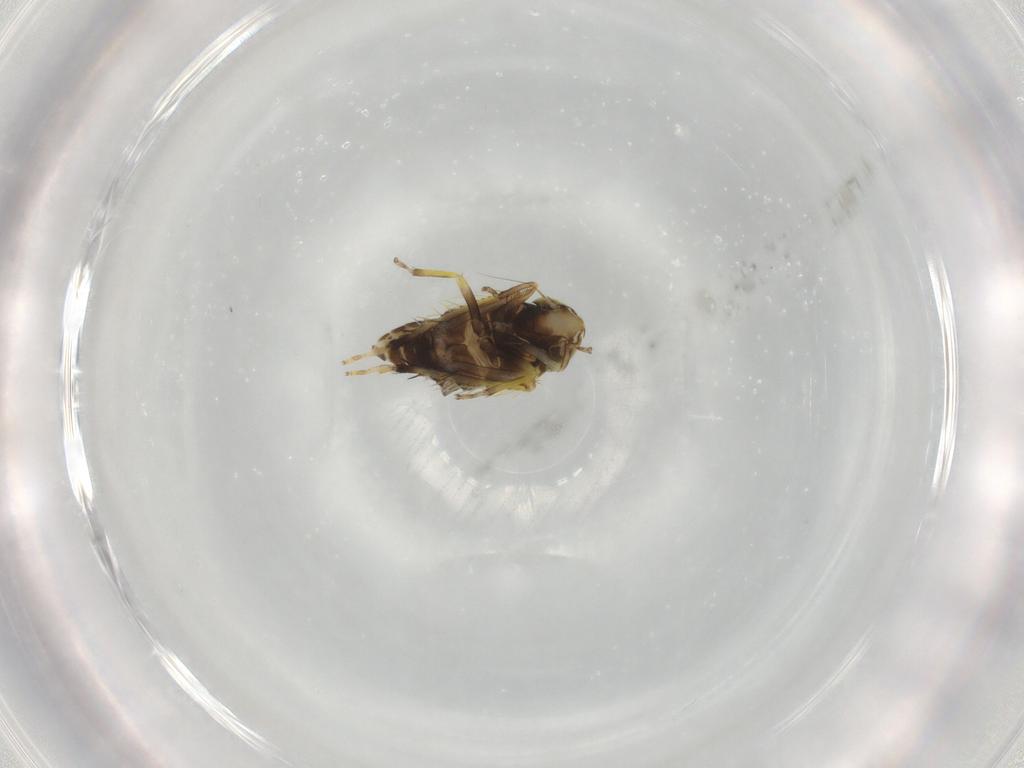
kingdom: Animalia
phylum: Arthropoda
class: Insecta
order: Hemiptera
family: Cicadellidae
